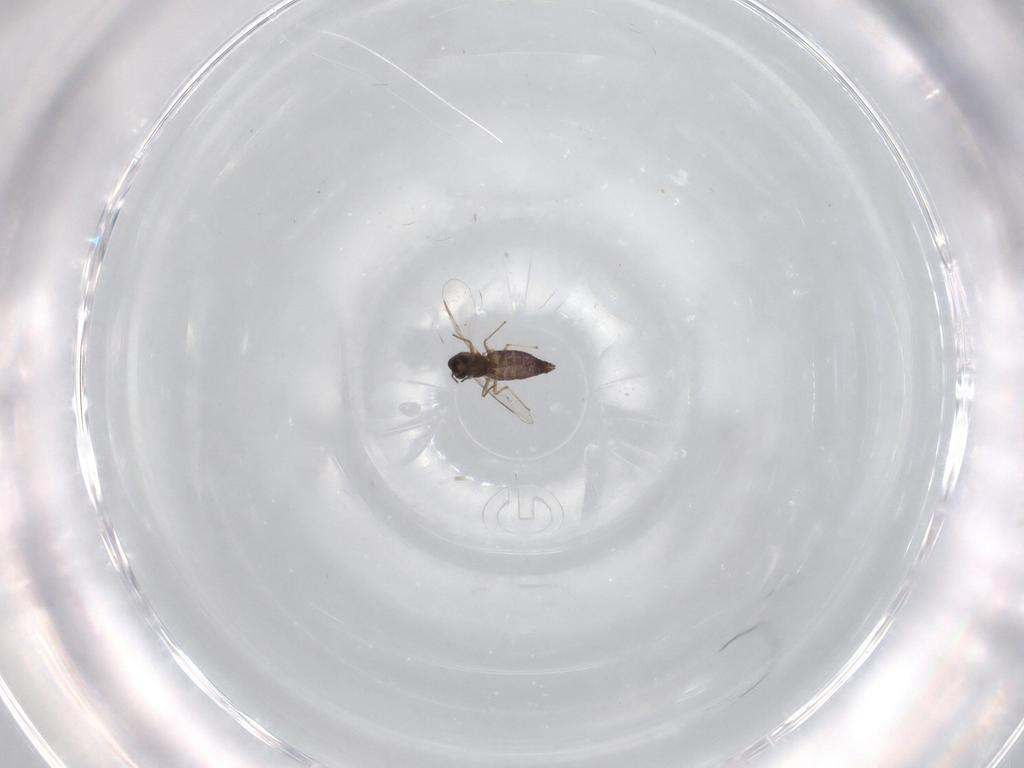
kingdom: Animalia
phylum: Arthropoda
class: Insecta
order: Diptera
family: Chironomidae
